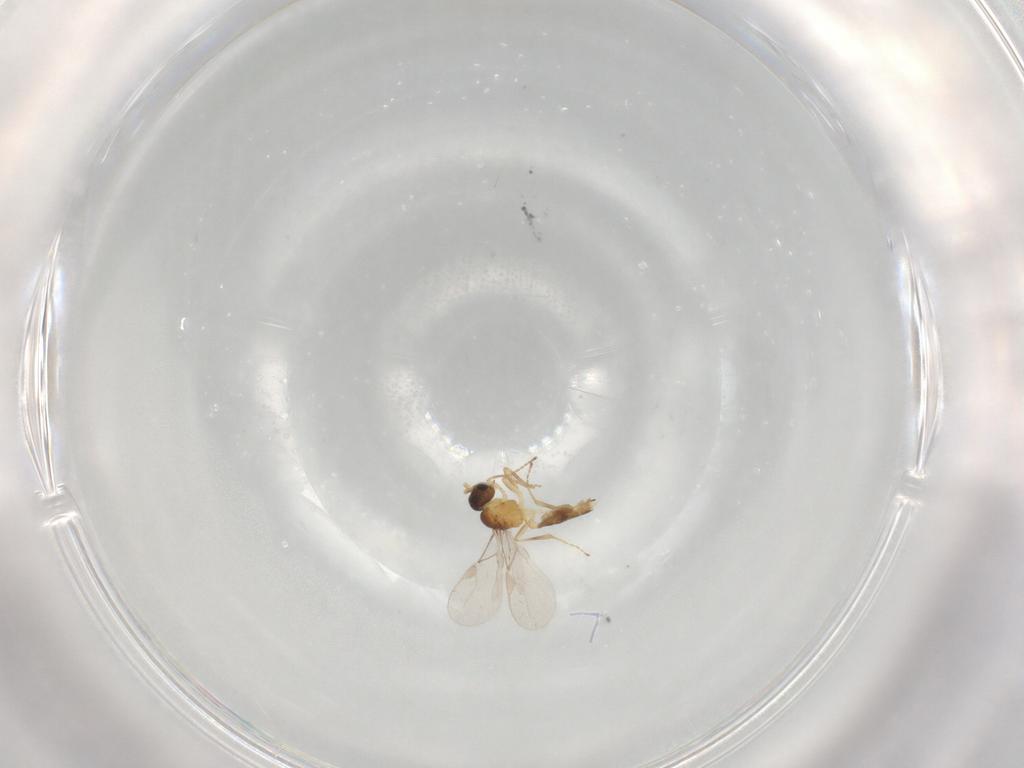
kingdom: Animalia
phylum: Arthropoda
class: Insecta
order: Hymenoptera
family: Braconidae
